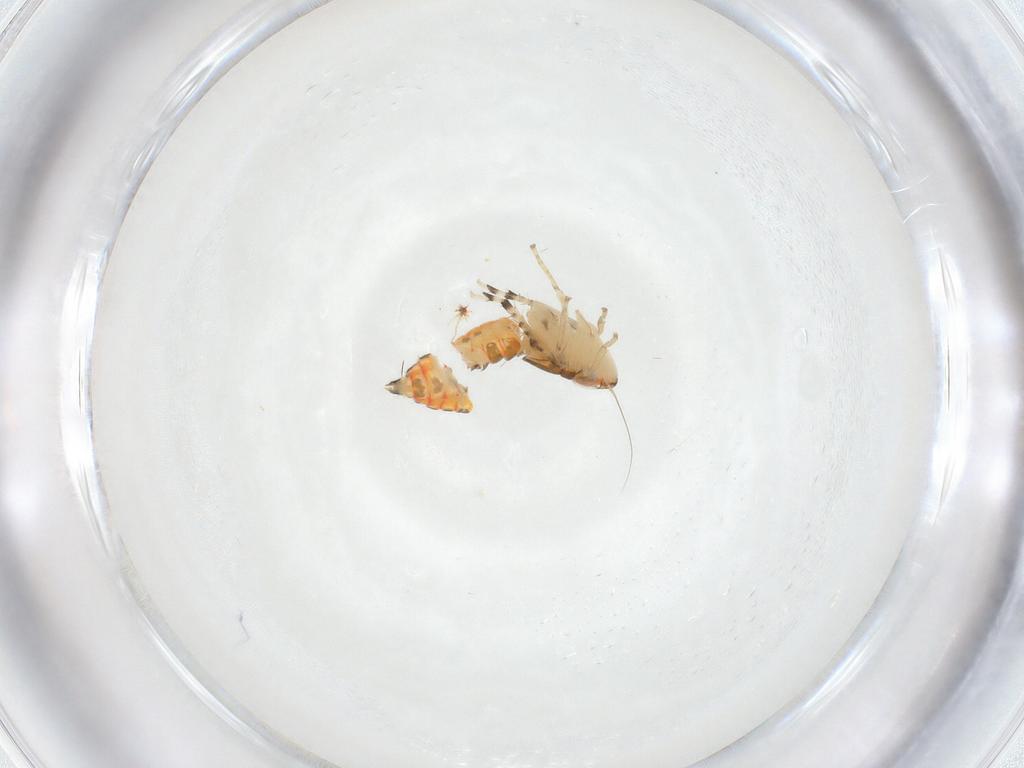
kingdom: Animalia
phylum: Arthropoda
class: Insecta
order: Hemiptera
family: Cicadellidae
